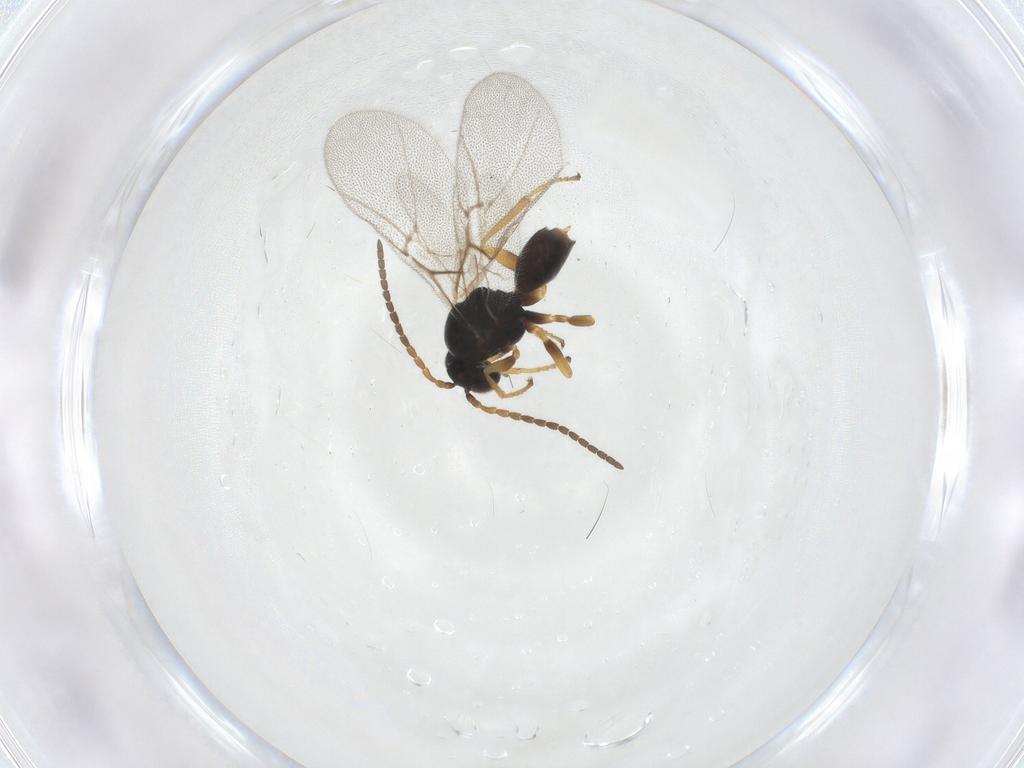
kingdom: Animalia
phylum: Arthropoda
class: Insecta
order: Hymenoptera
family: Cynipidae
